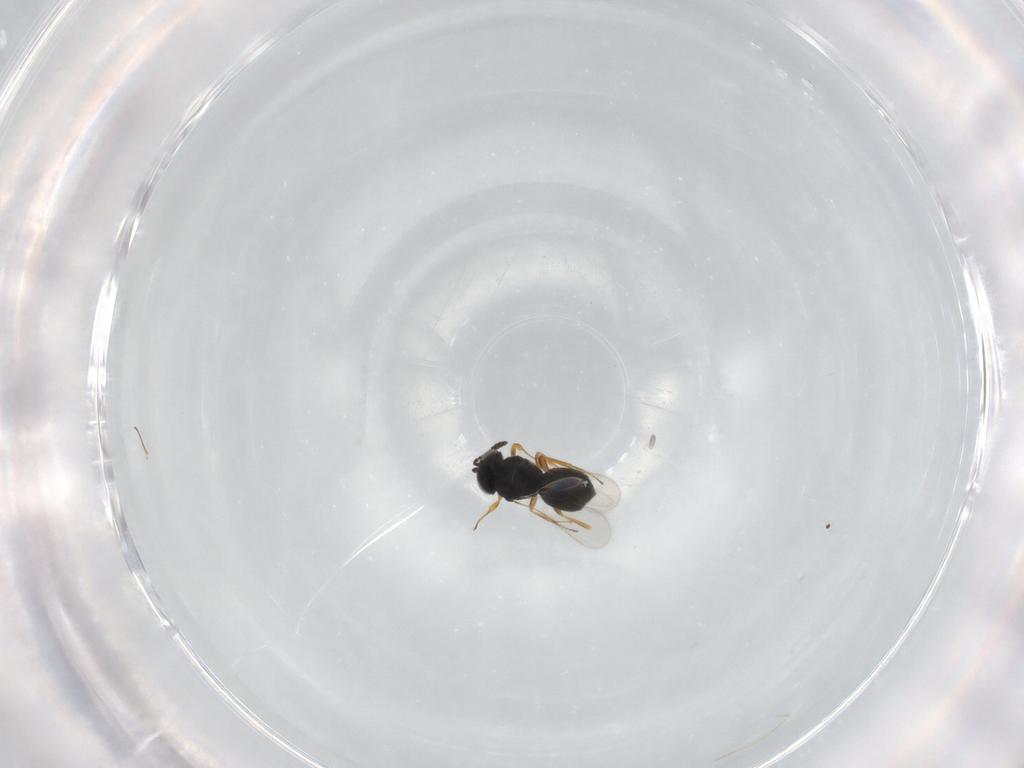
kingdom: Animalia
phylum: Arthropoda
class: Insecta
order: Hymenoptera
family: Scelionidae
